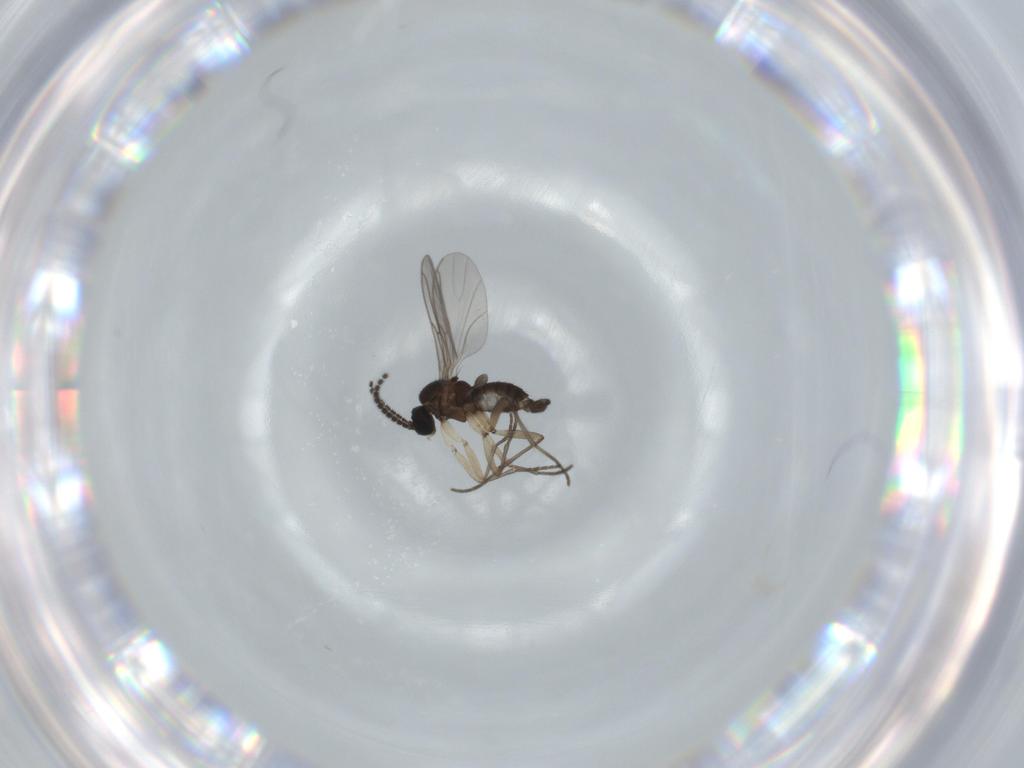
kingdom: Animalia
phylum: Arthropoda
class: Insecta
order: Diptera
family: Sciaridae
